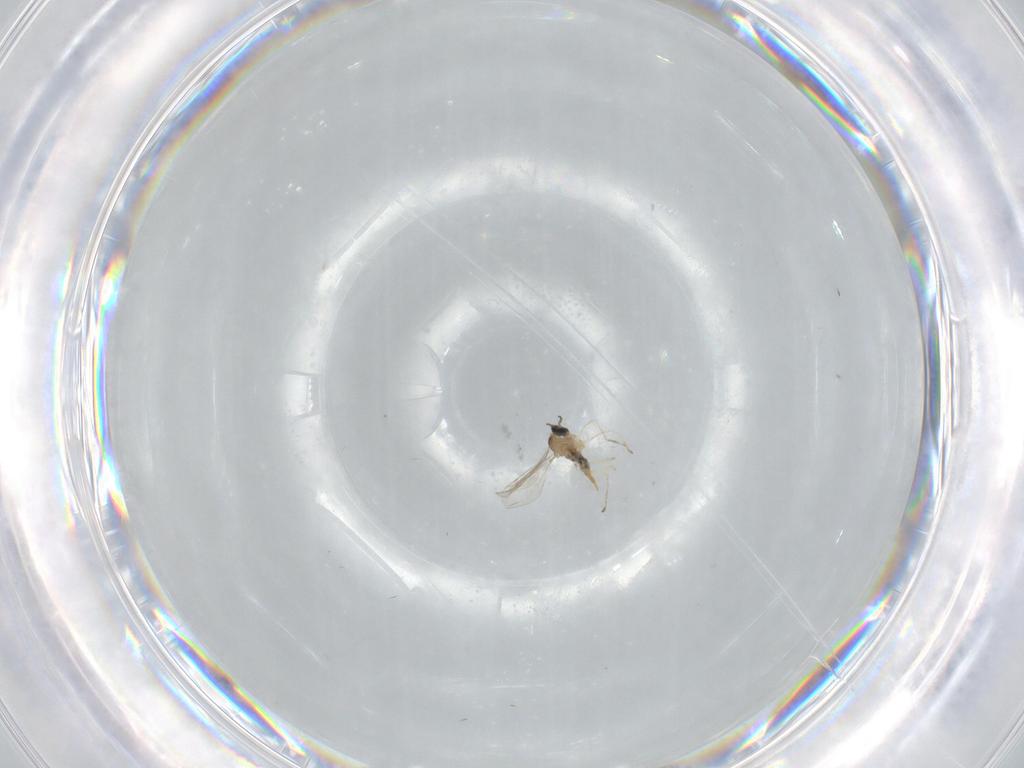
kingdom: Animalia
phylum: Arthropoda
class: Insecta
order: Diptera
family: Cecidomyiidae
